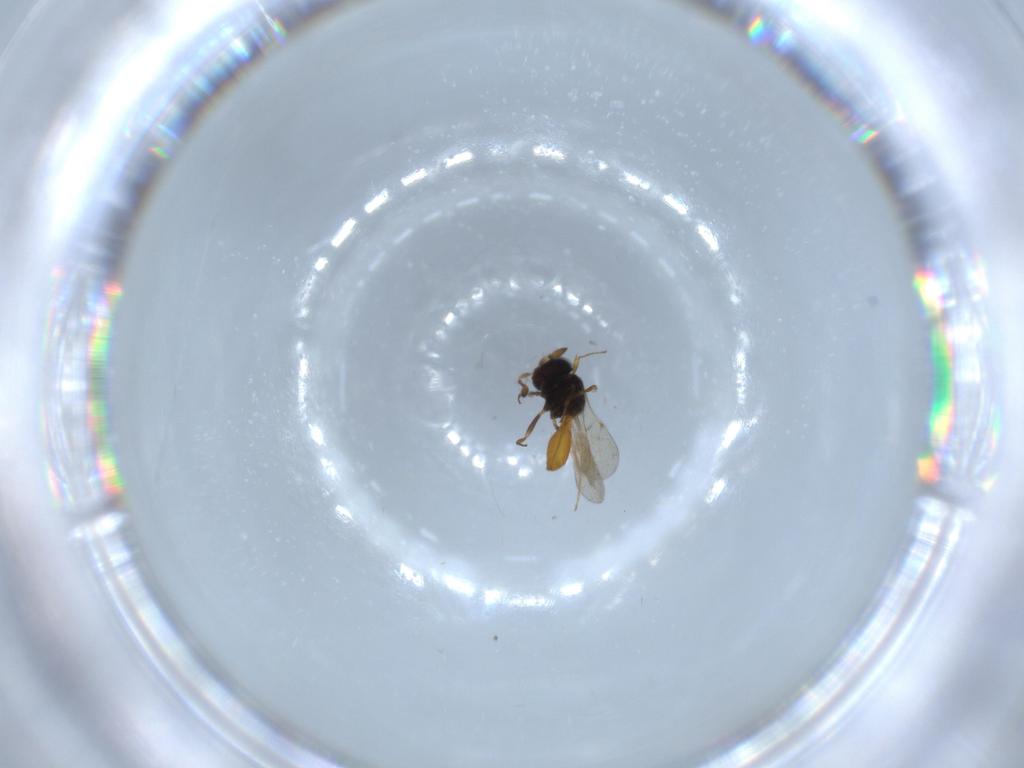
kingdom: Animalia
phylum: Arthropoda
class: Insecta
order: Hymenoptera
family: Scelionidae
